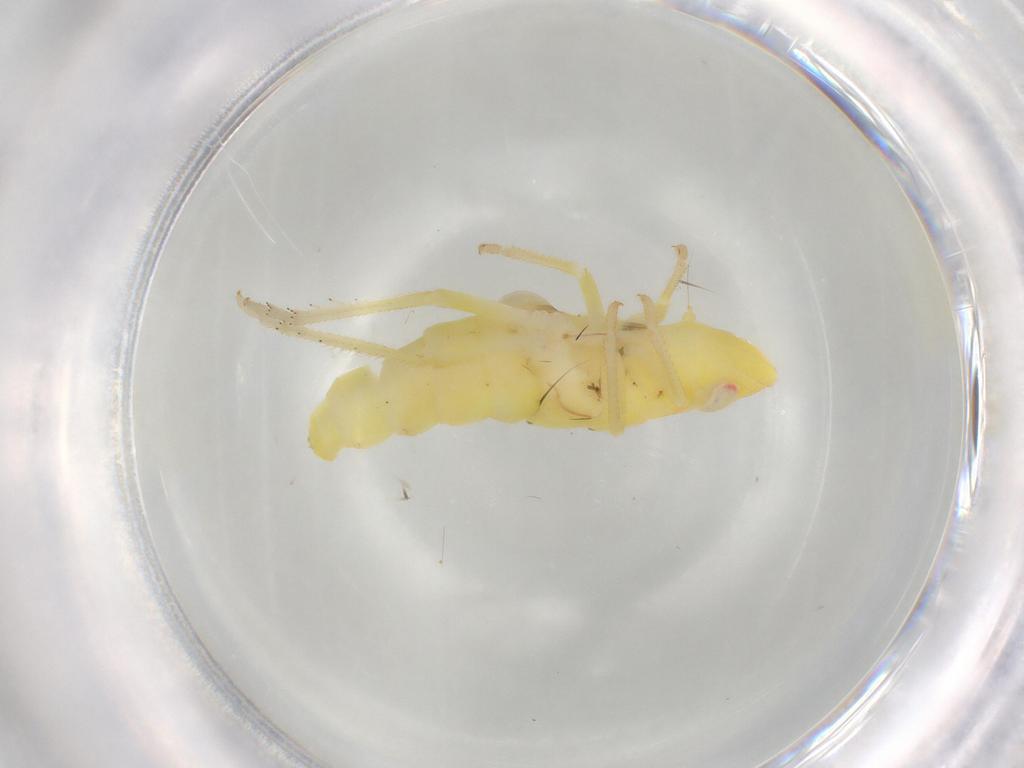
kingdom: Animalia
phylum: Arthropoda
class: Insecta
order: Hemiptera
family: Tropiduchidae
